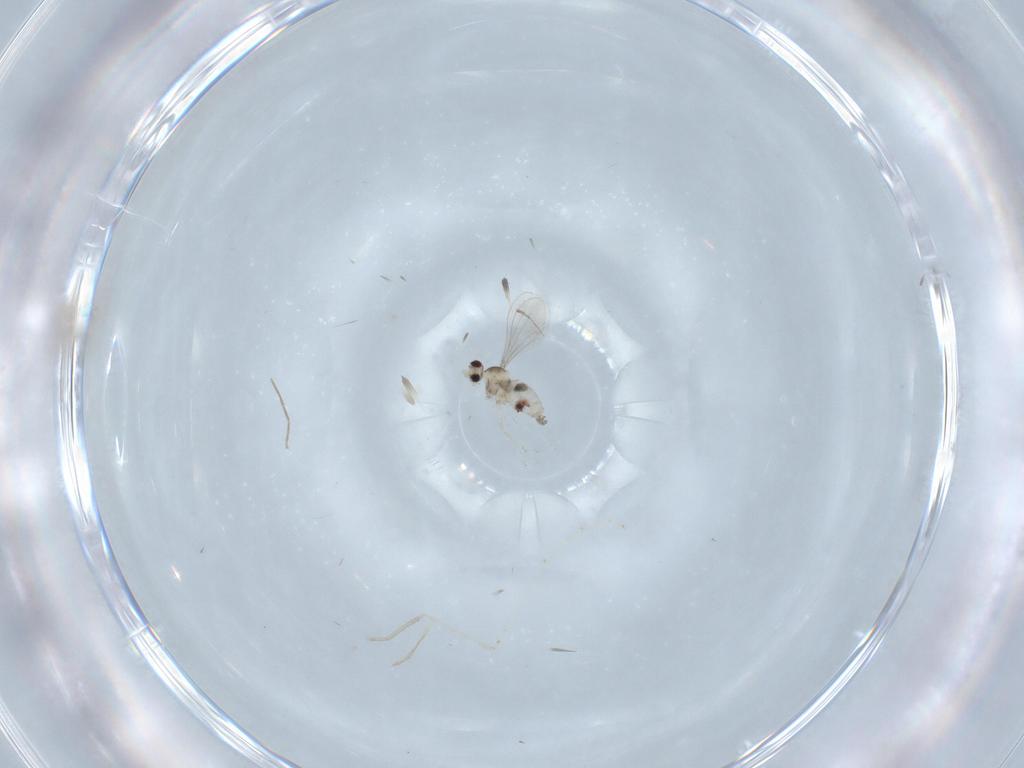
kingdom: Animalia
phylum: Arthropoda
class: Insecta
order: Diptera
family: Cecidomyiidae
